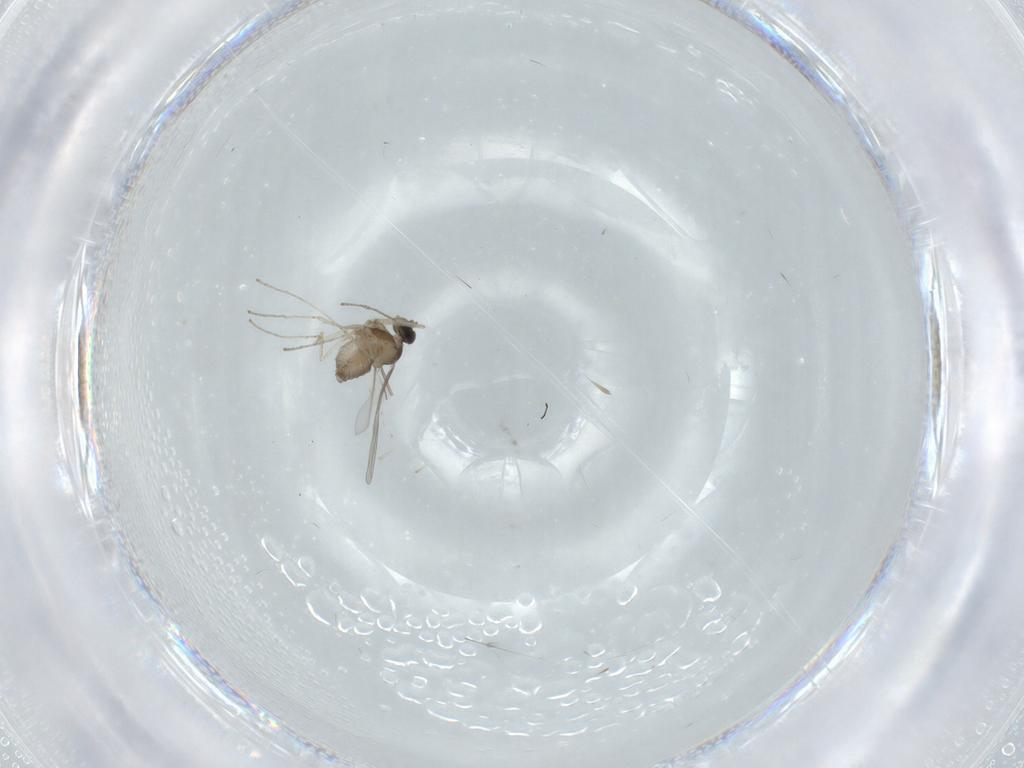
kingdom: Animalia
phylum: Arthropoda
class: Insecta
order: Diptera
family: Cecidomyiidae
